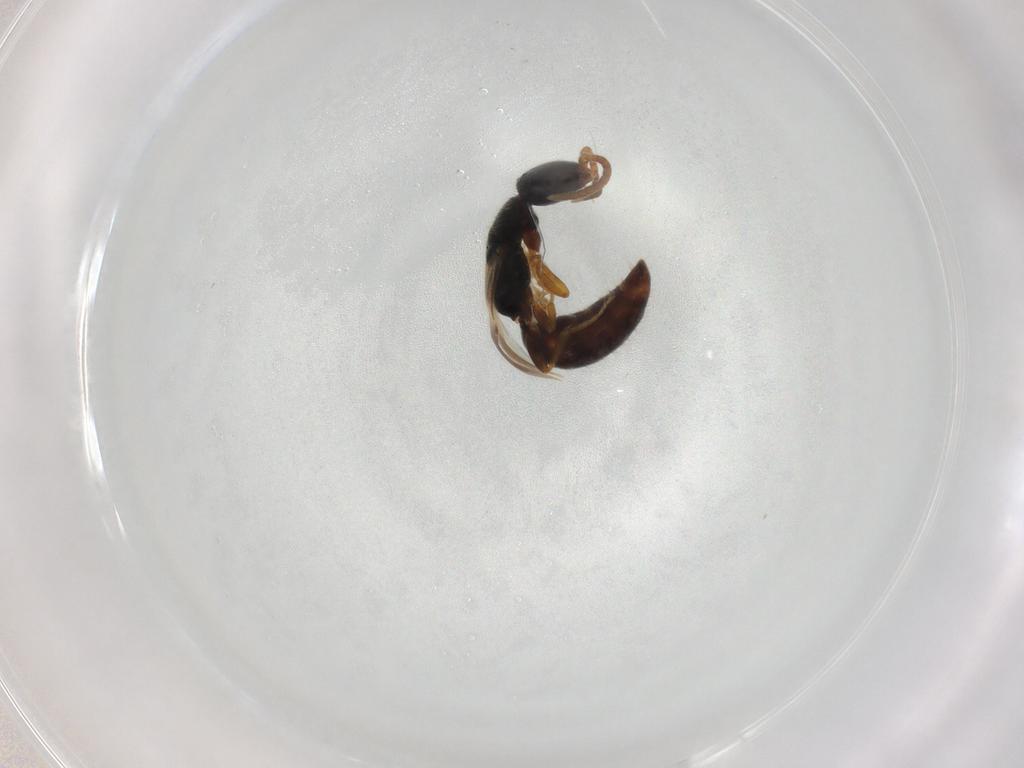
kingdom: Animalia
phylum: Arthropoda
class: Insecta
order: Hymenoptera
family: Bethylidae
